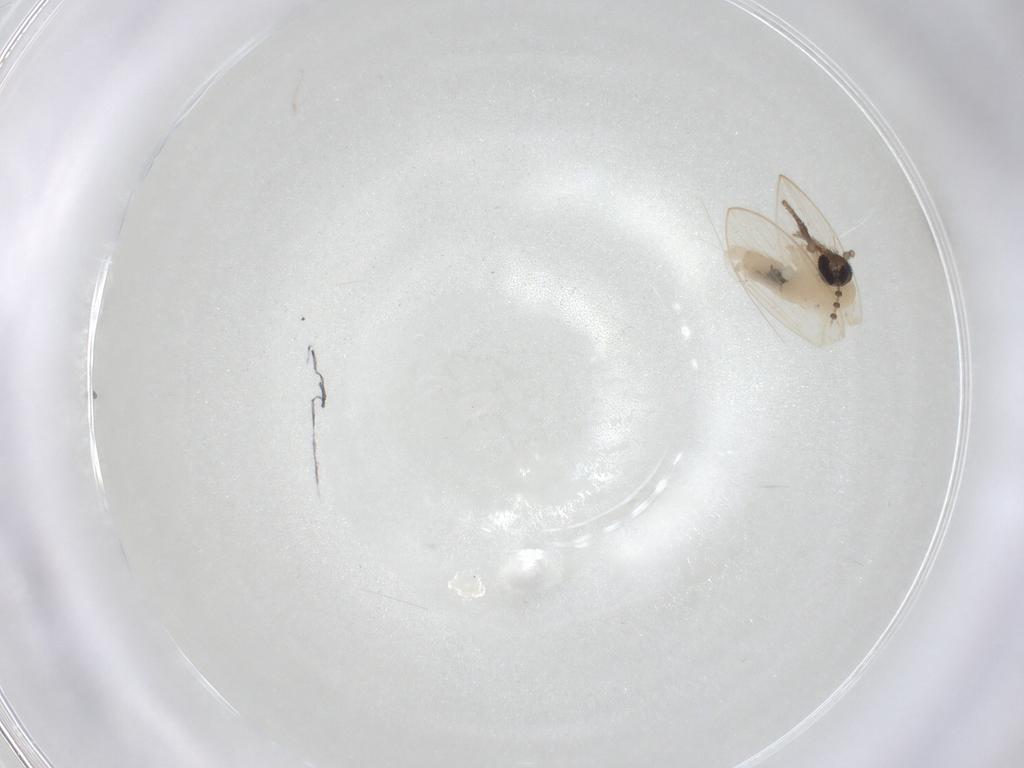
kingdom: Animalia
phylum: Arthropoda
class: Insecta
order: Diptera
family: Psychodidae
